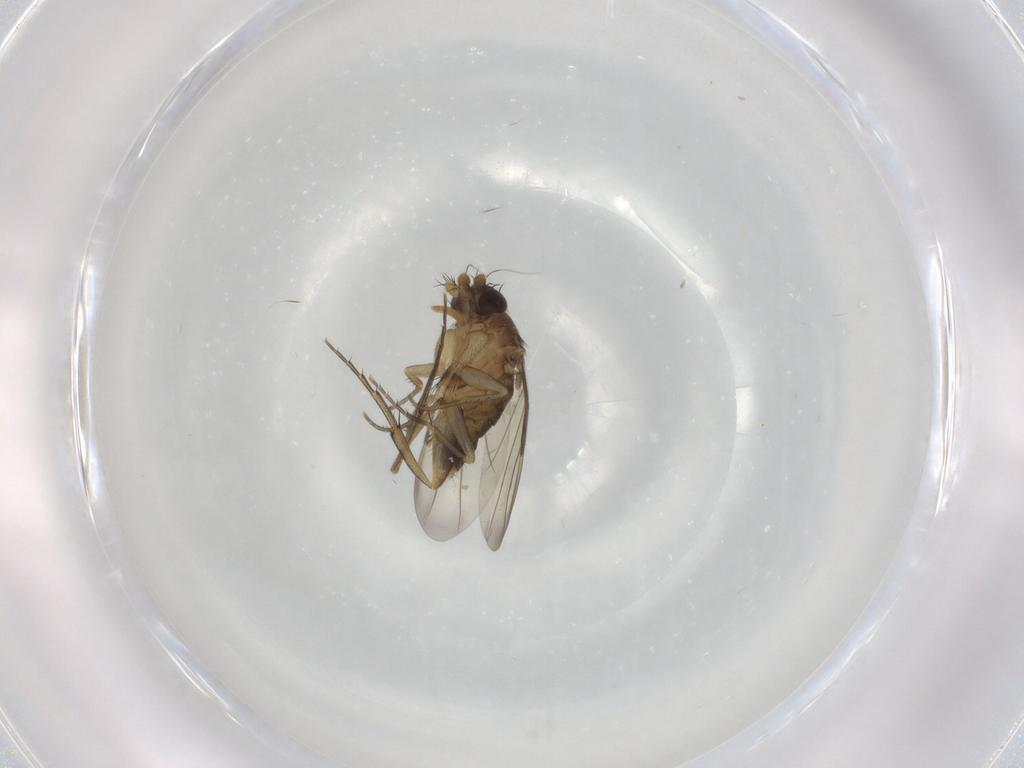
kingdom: Animalia
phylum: Arthropoda
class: Insecta
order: Diptera
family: Phoridae
